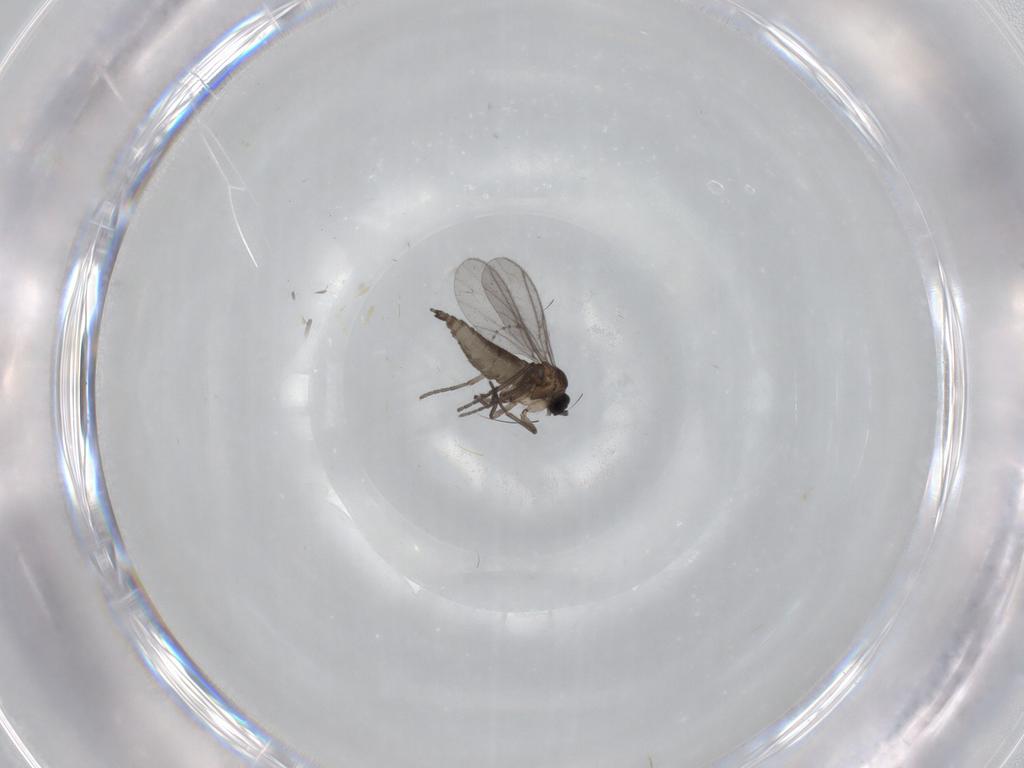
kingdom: Animalia
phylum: Arthropoda
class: Insecta
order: Diptera
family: Sciaridae
